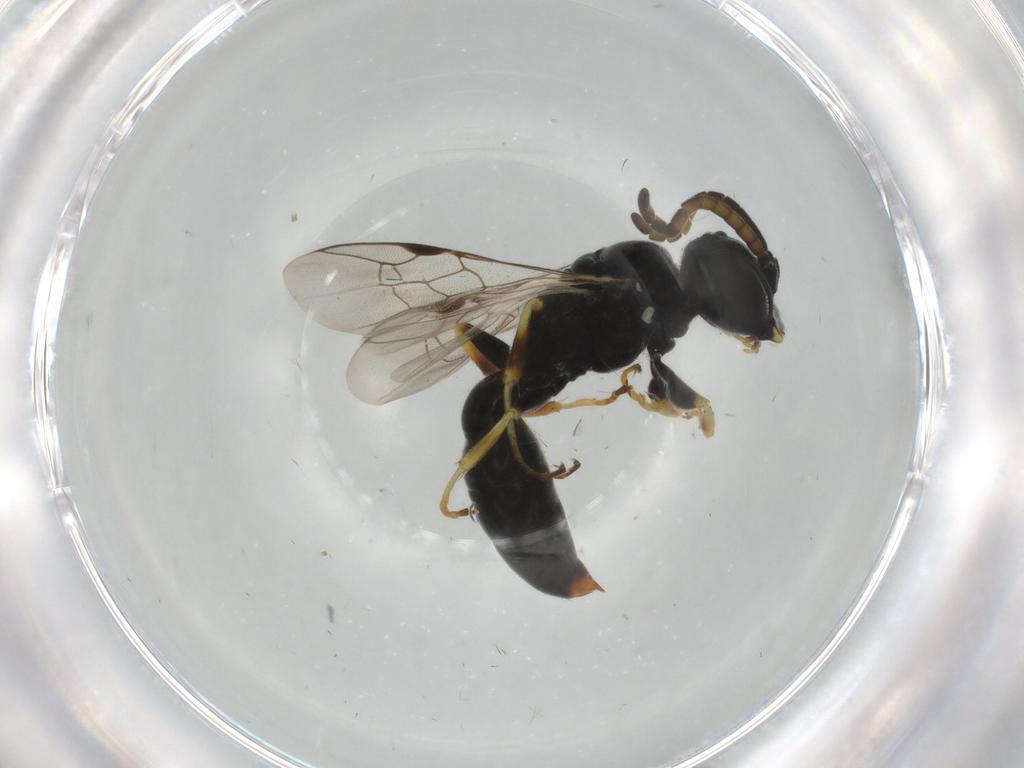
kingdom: Animalia
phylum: Arthropoda
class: Insecta
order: Hymenoptera
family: Crabronidae
